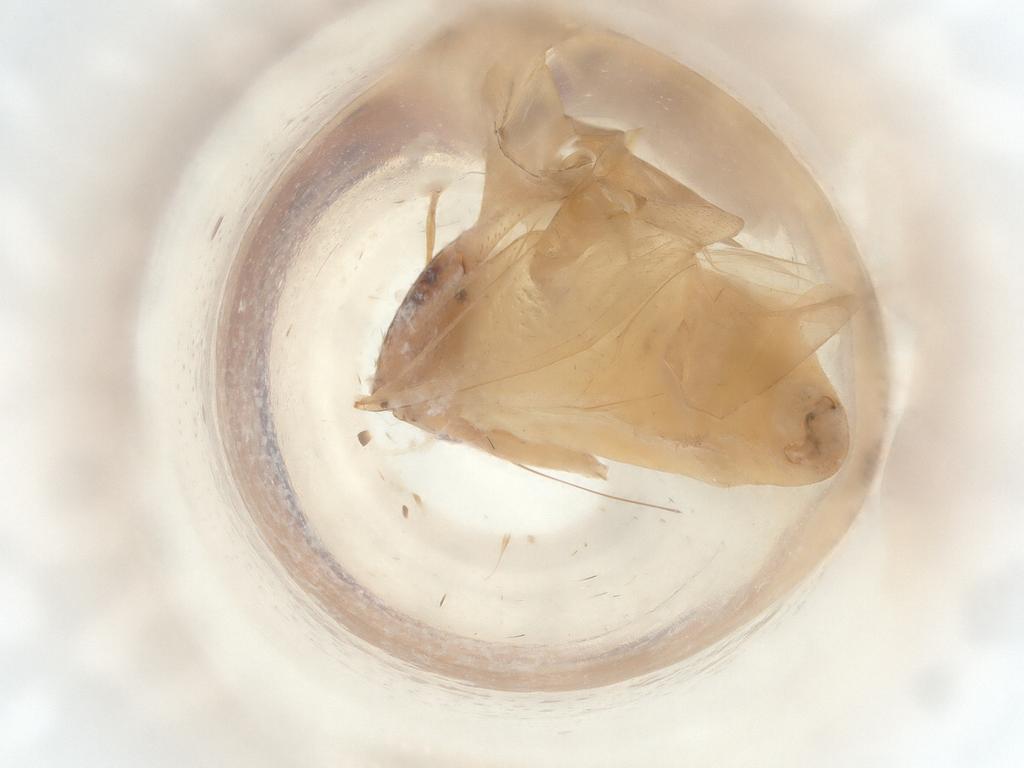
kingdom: Animalia
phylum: Arthropoda
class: Insecta
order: Hemiptera
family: Miridae
